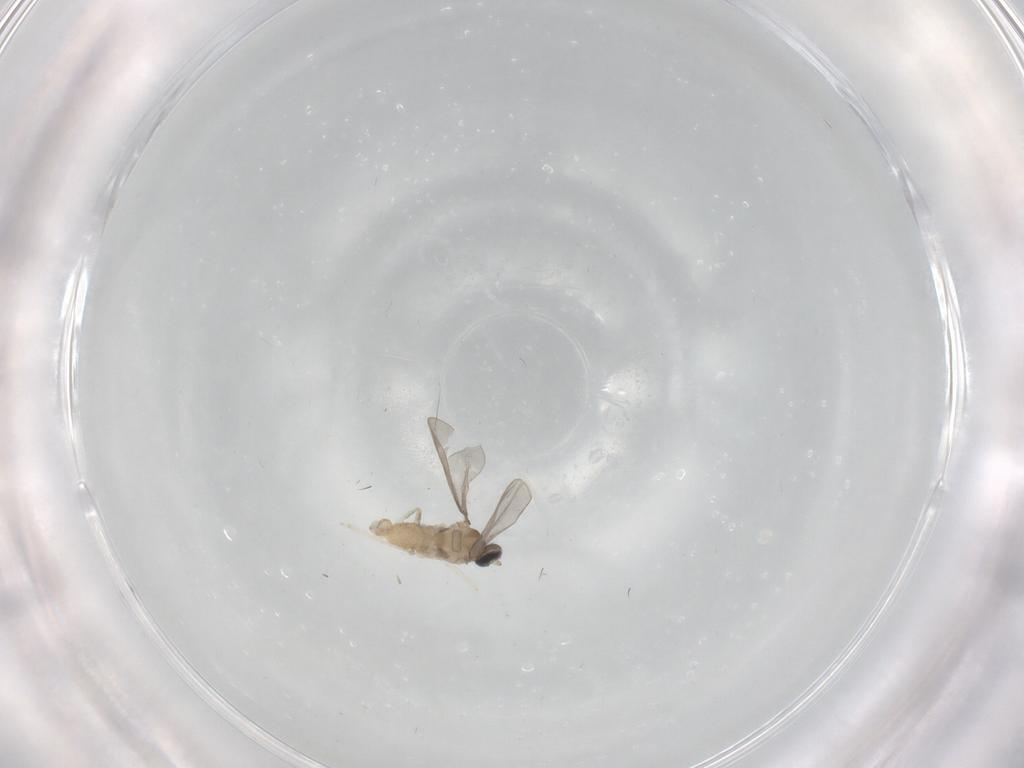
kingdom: Animalia
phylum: Arthropoda
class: Insecta
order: Diptera
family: Cecidomyiidae
